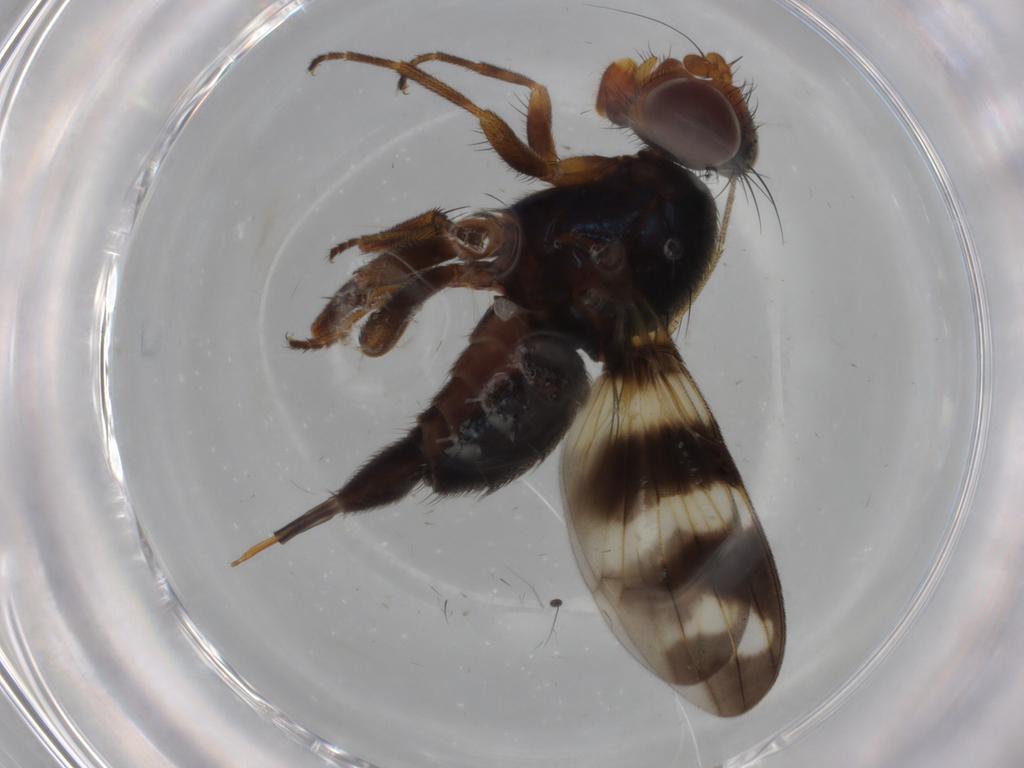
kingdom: Animalia
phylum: Arthropoda
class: Insecta
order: Diptera
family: Ulidiidae
